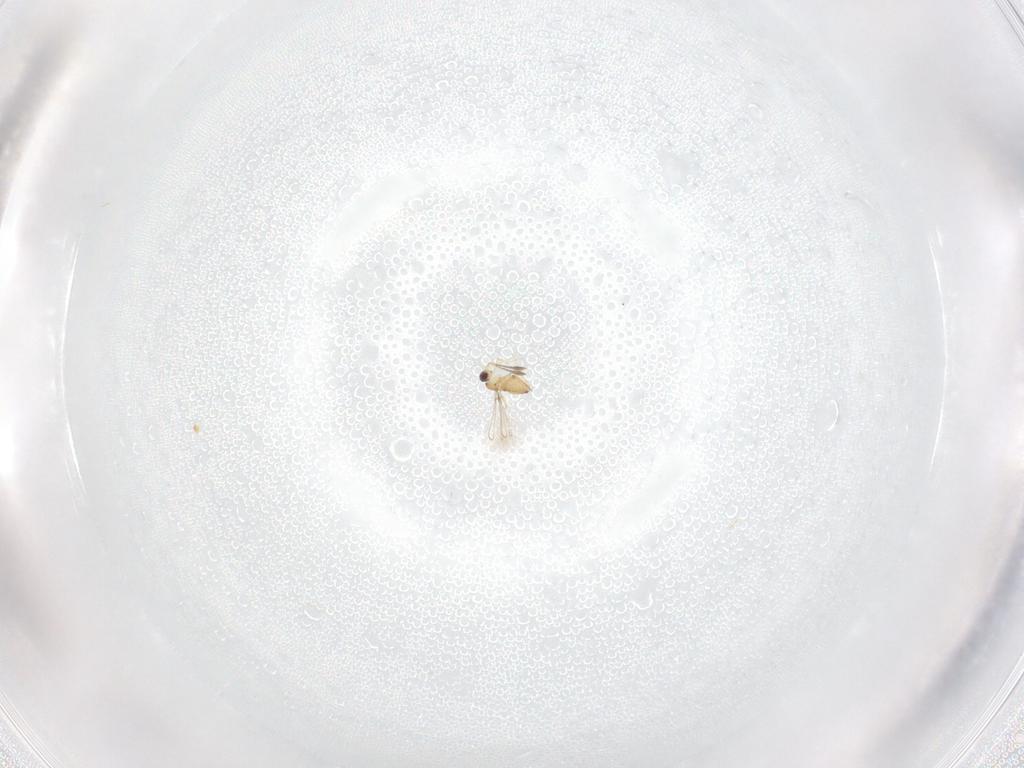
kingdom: Animalia
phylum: Arthropoda
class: Insecta
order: Hymenoptera
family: Mymaridae
